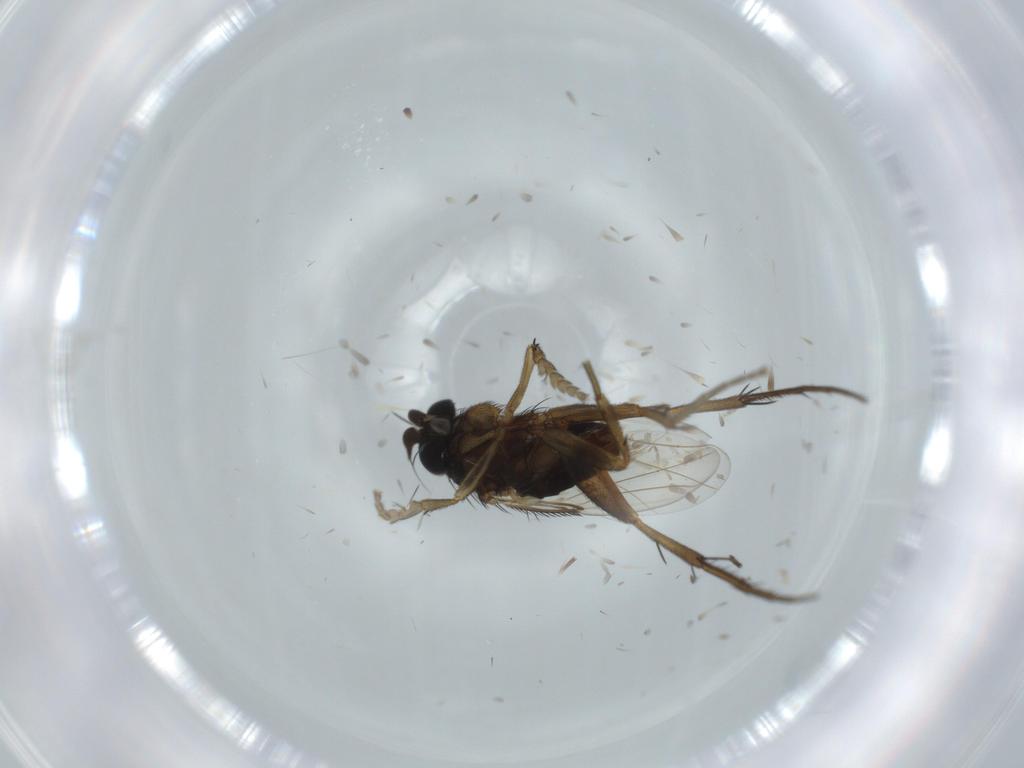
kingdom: Animalia
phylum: Arthropoda
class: Insecta
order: Diptera
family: Sciaridae
